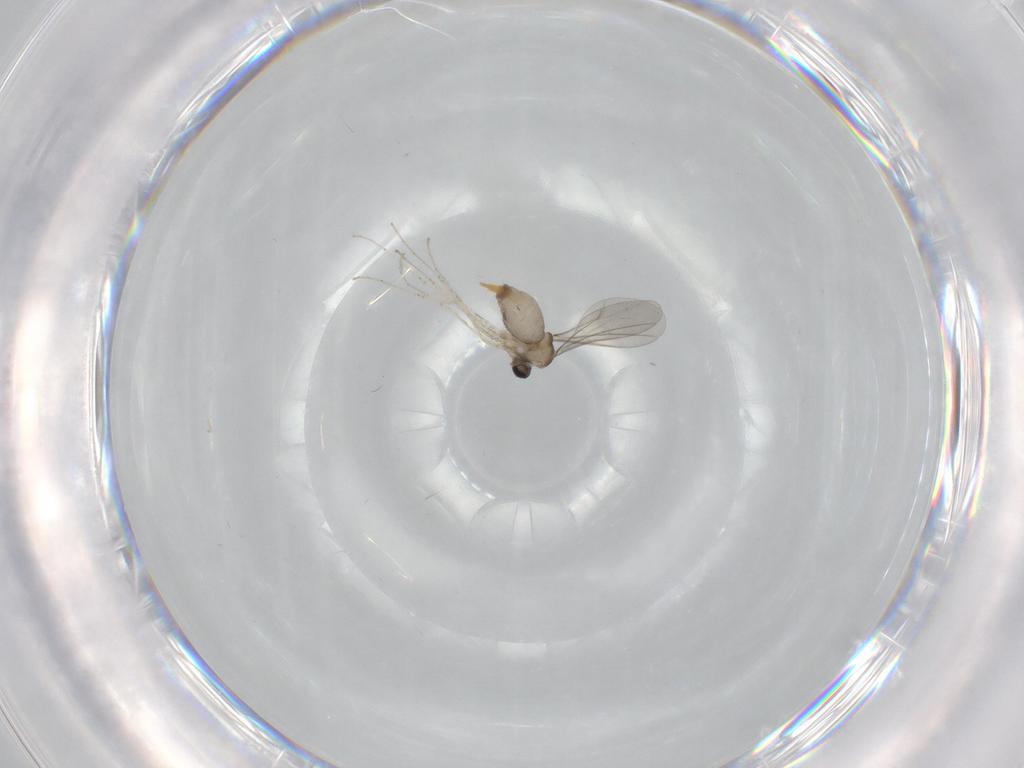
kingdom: Animalia
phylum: Arthropoda
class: Insecta
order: Diptera
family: Cecidomyiidae
